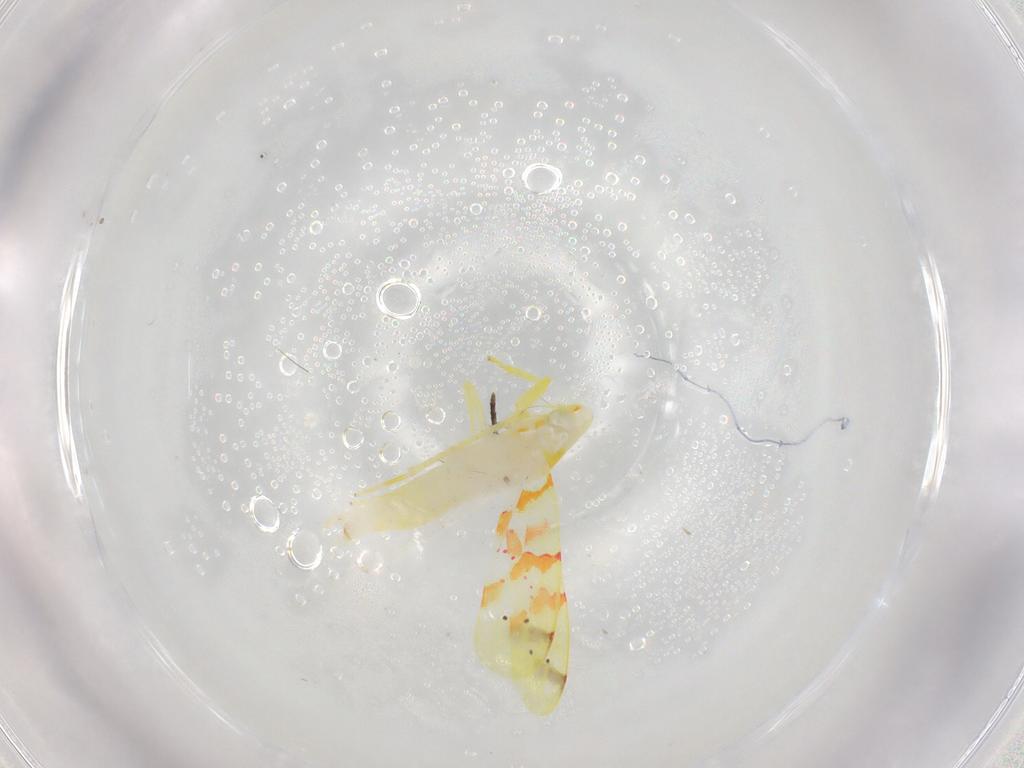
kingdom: Animalia
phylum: Arthropoda
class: Insecta
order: Hemiptera
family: Cicadellidae
